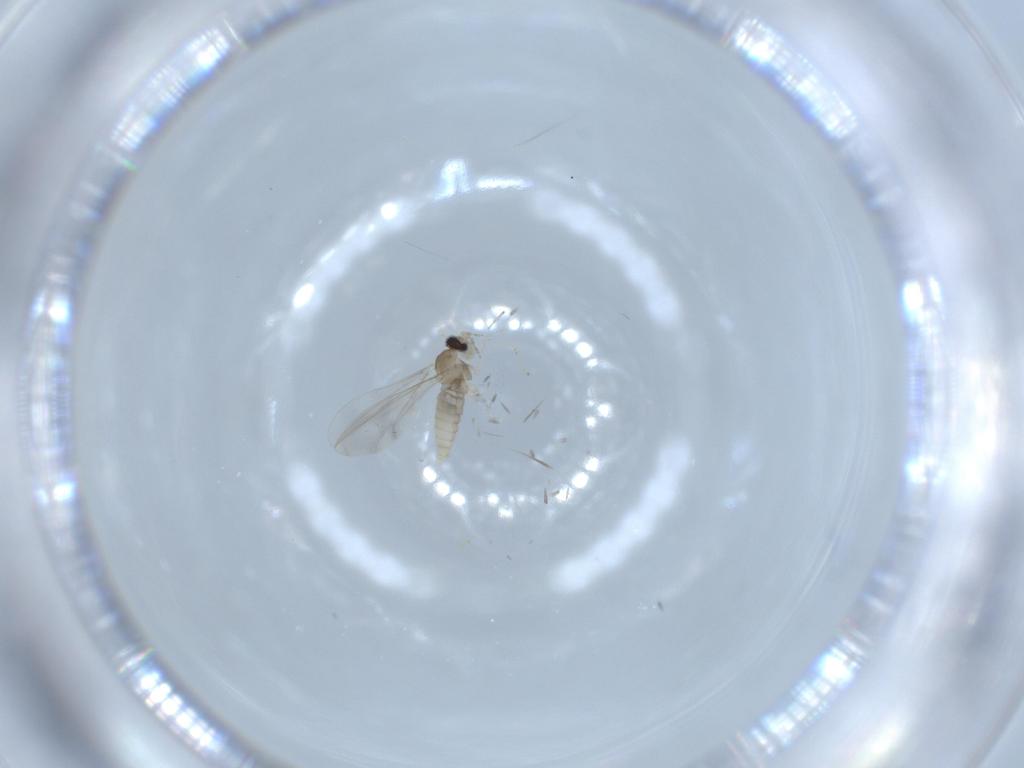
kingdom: Animalia
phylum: Arthropoda
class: Insecta
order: Diptera
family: Cecidomyiidae
